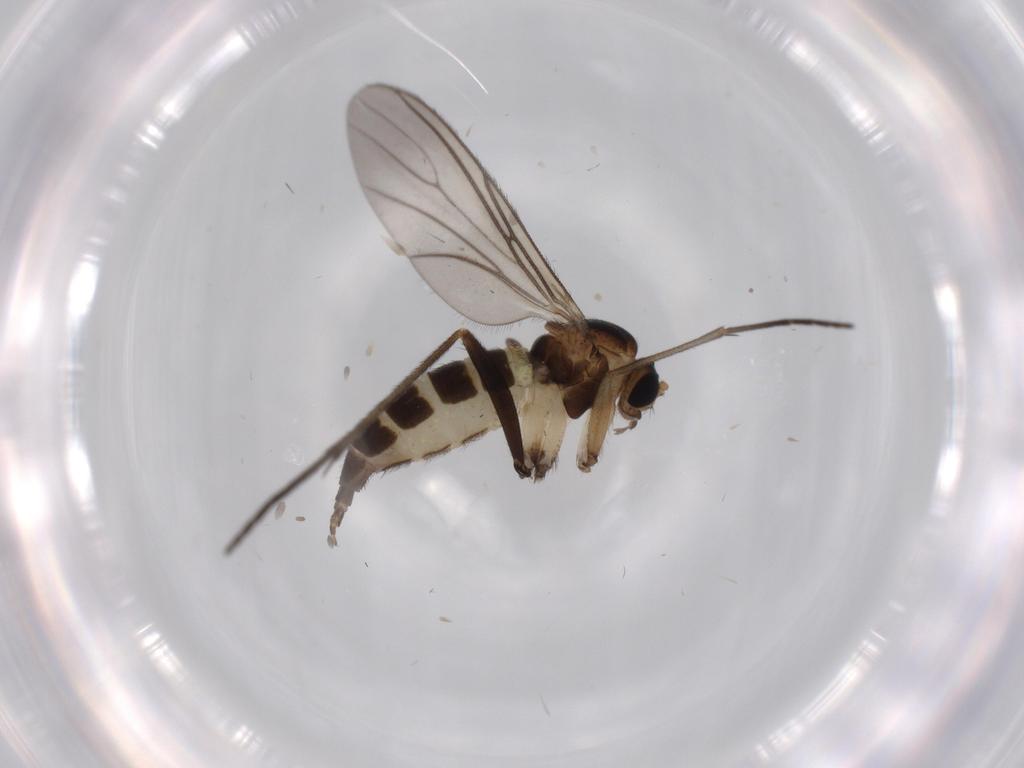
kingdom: Animalia
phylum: Arthropoda
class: Insecta
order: Diptera
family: Sciaridae
